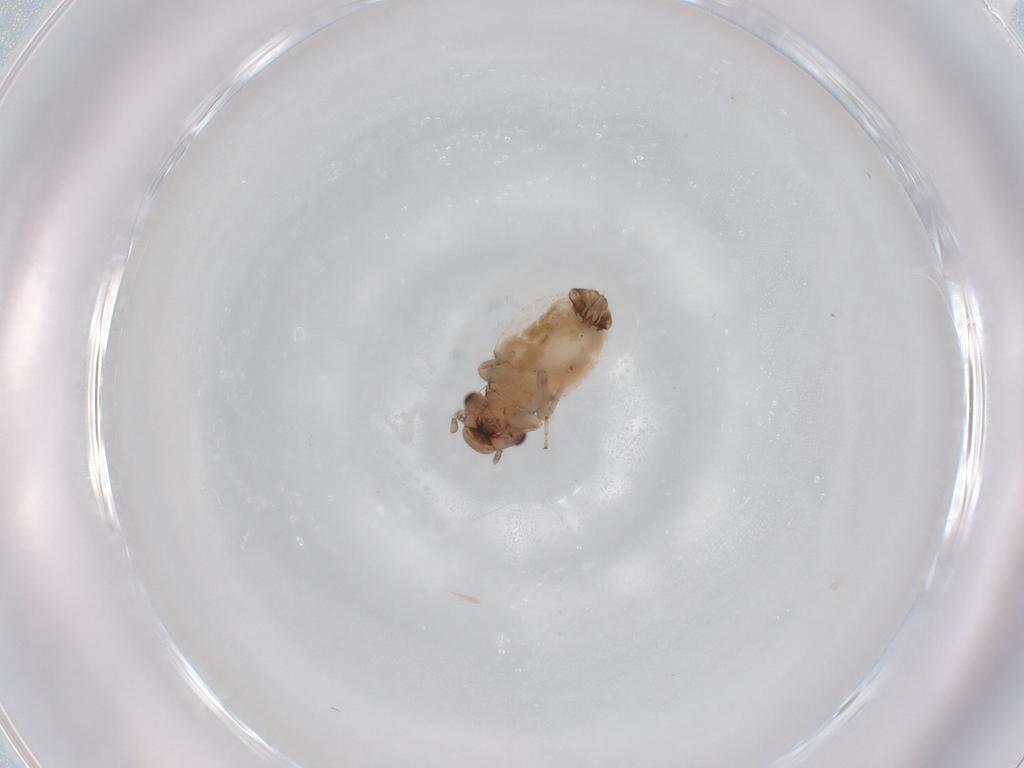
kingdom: Animalia
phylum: Arthropoda
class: Insecta
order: Psocodea
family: Trogiidae
